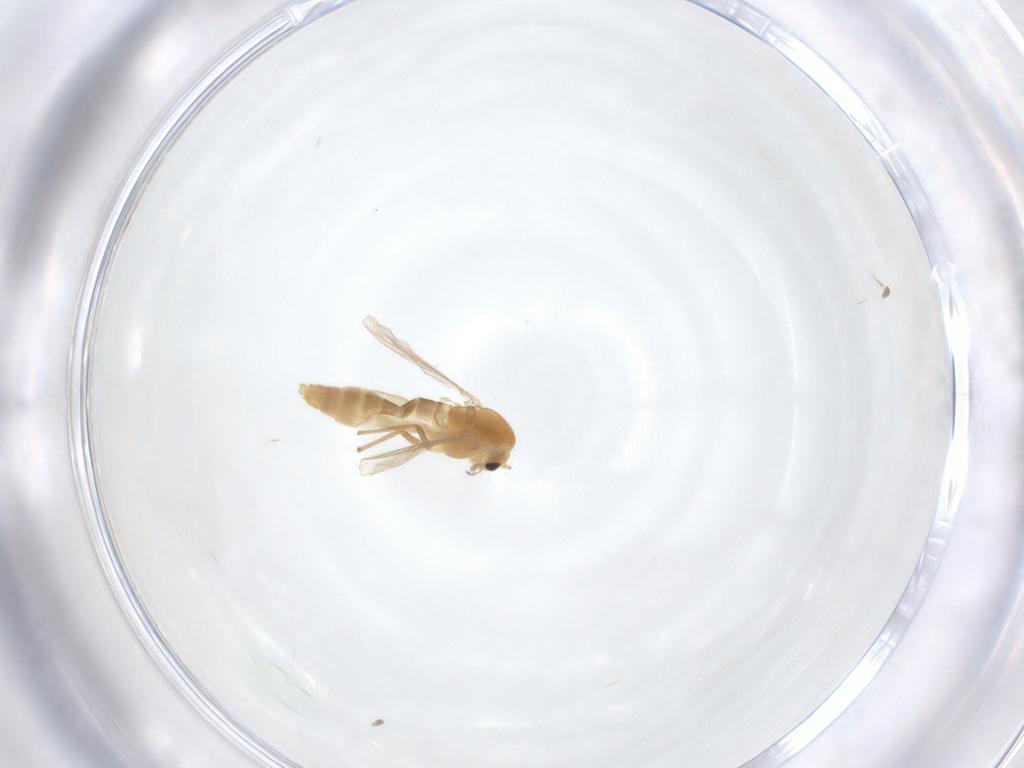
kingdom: Animalia
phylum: Arthropoda
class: Insecta
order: Diptera
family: Chironomidae
